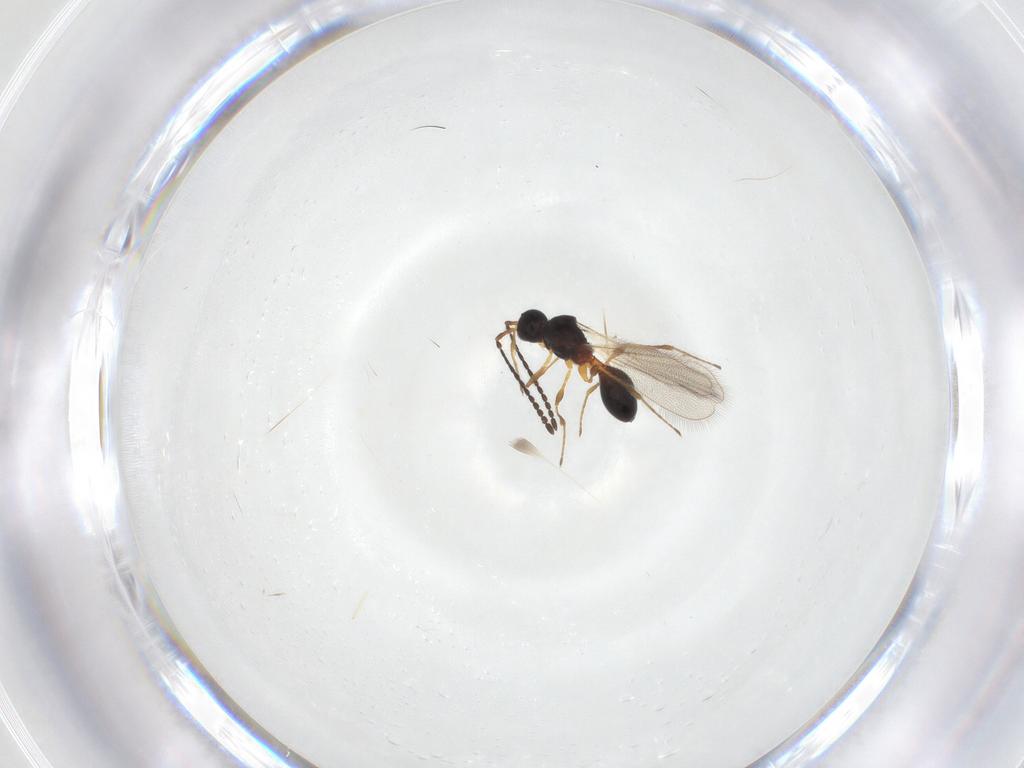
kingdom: Animalia
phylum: Arthropoda
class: Insecta
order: Hymenoptera
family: Diapriidae
